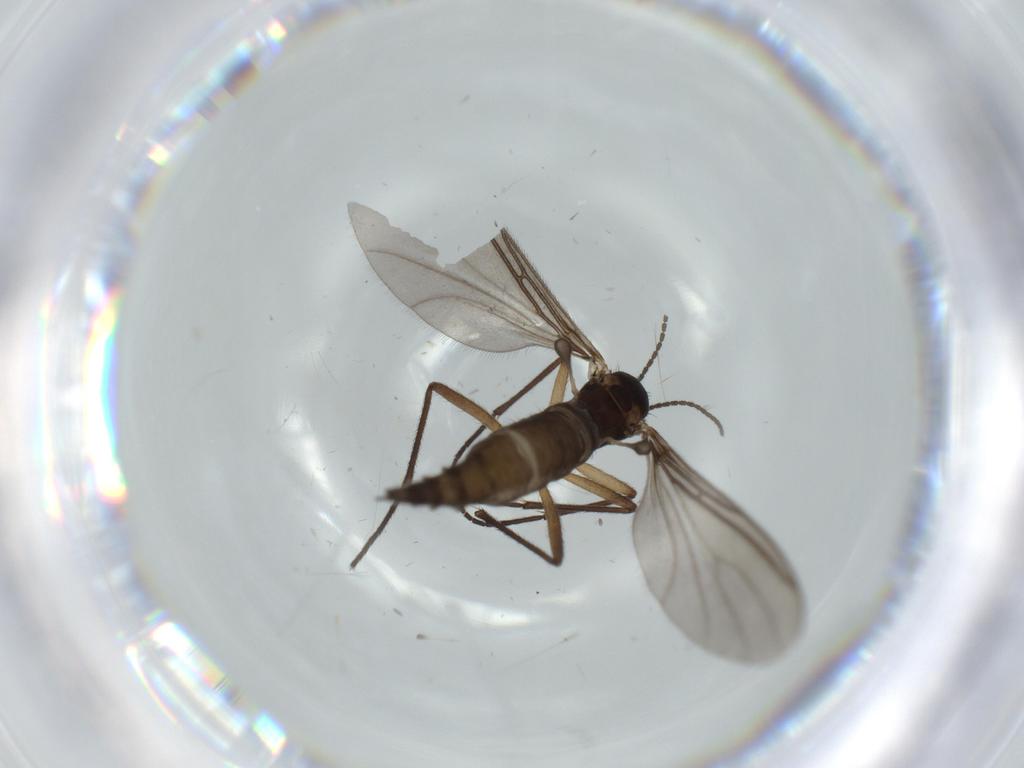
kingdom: Animalia
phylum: Arthropoda
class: Insecta
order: Diptera
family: Sciaridae
